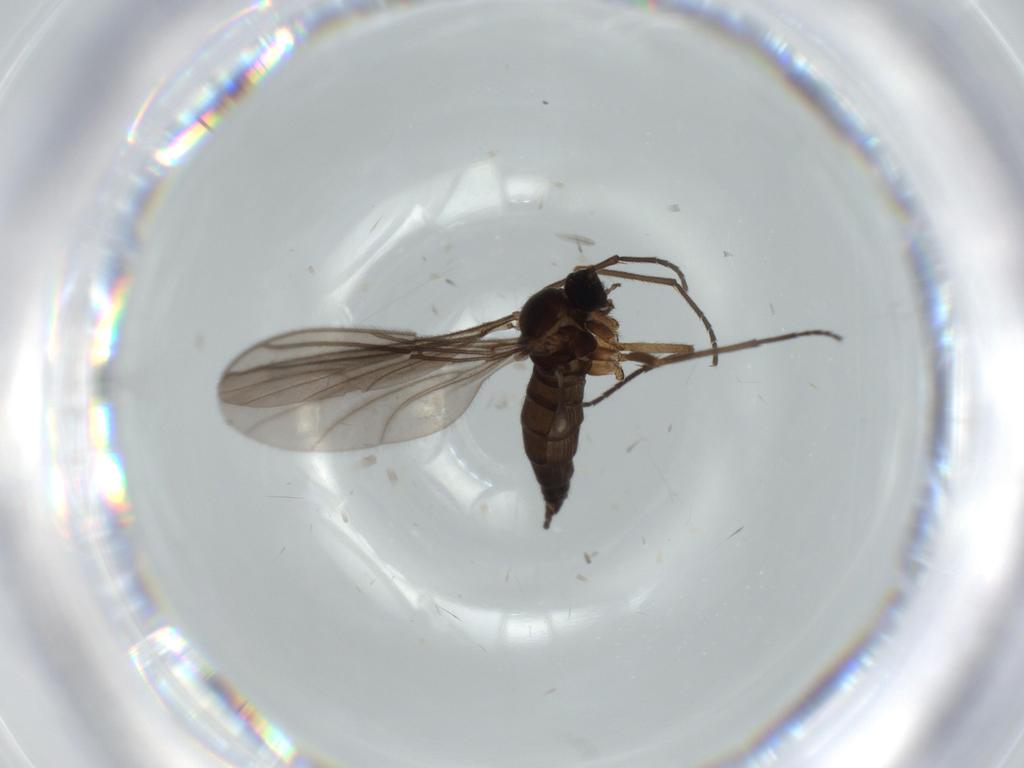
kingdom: Animalia
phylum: Arthropoda
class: Insecta
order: Diptera
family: Sciaridae
